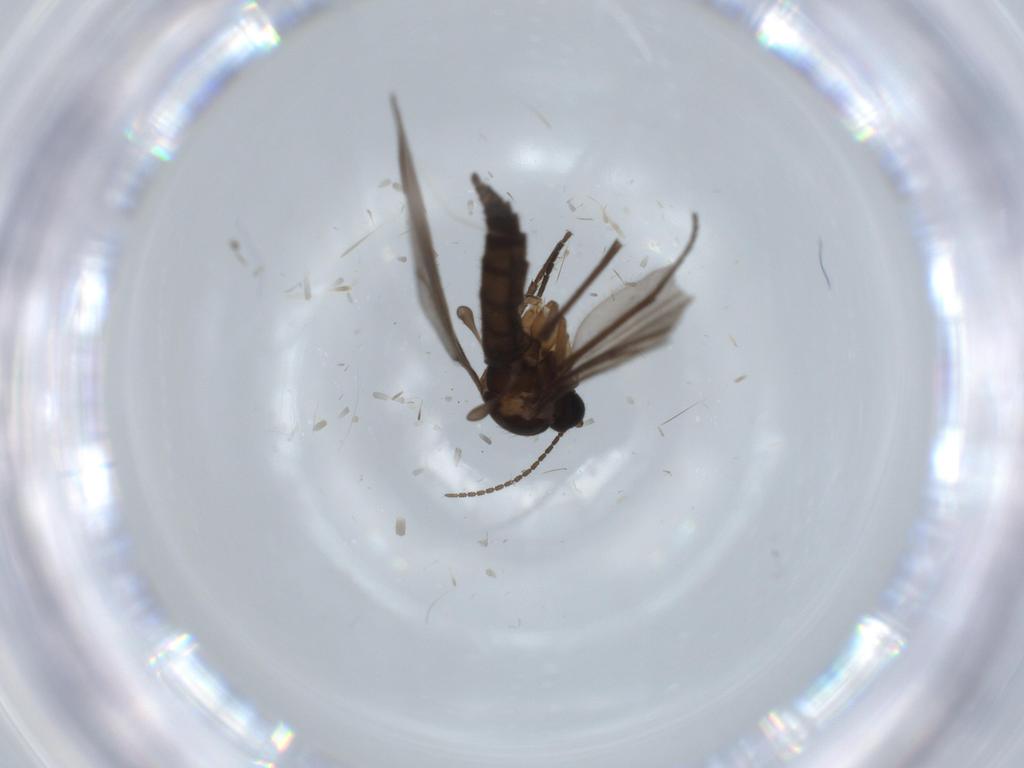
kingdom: Animalia
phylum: Arthropoda
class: Insecta
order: Diptera
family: Sciaridae
